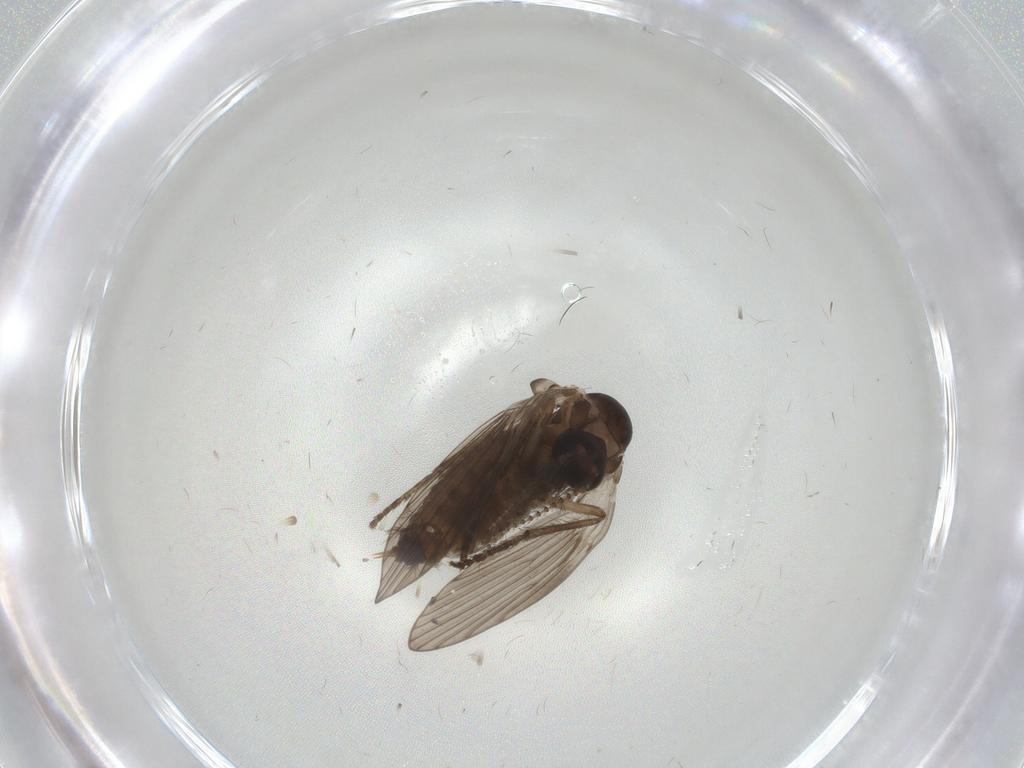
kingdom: Animalia
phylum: Arthropoda
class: Insecta
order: Diptera
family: Psychodidae
